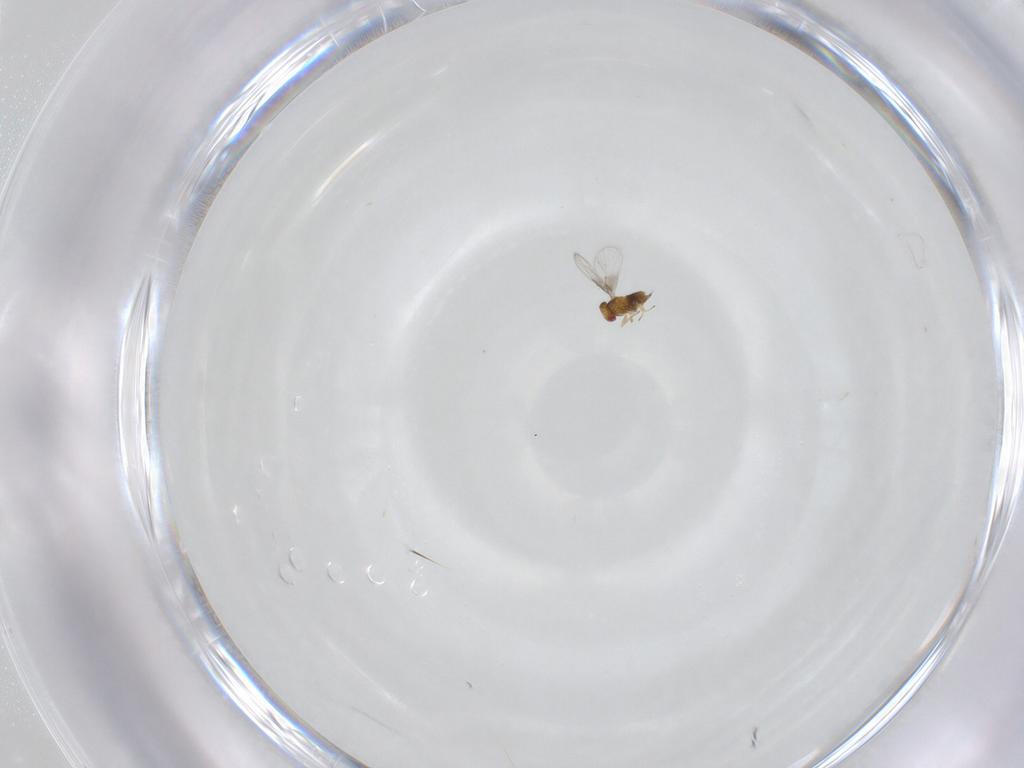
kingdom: Animalia
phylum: Arthropoda
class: Insecta
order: Hymenoptera
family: Trichogrammatidae
